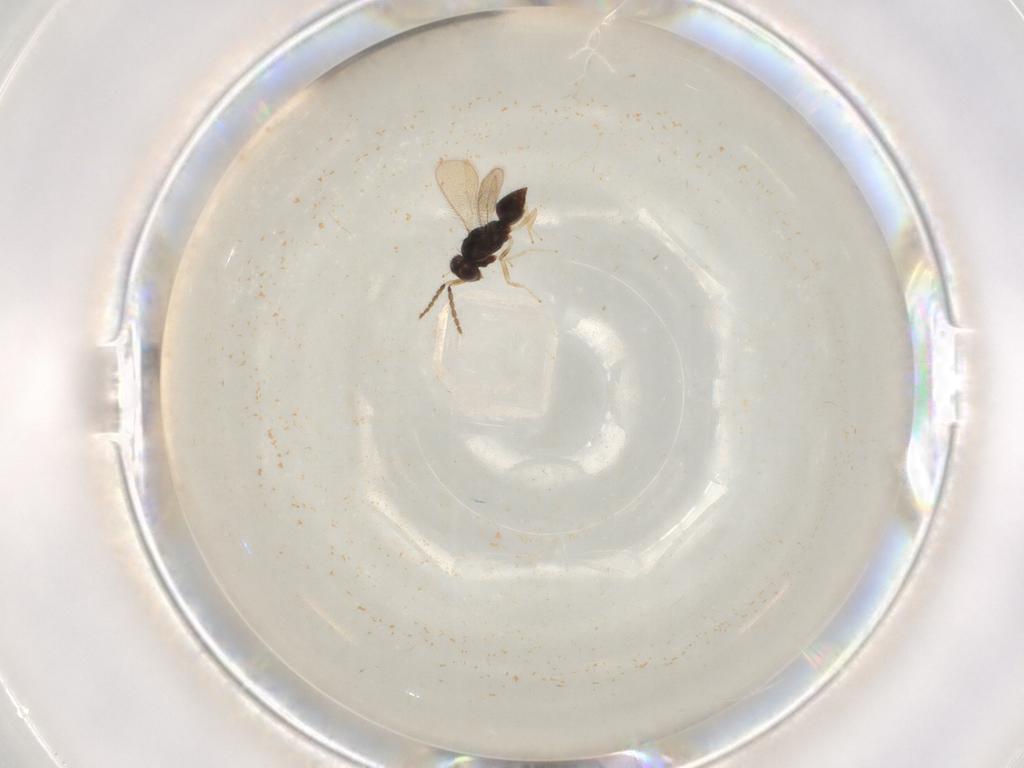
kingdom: Animalia
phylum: Arthropoda
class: Insecta
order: Hymenoptera
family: Eulophidae
